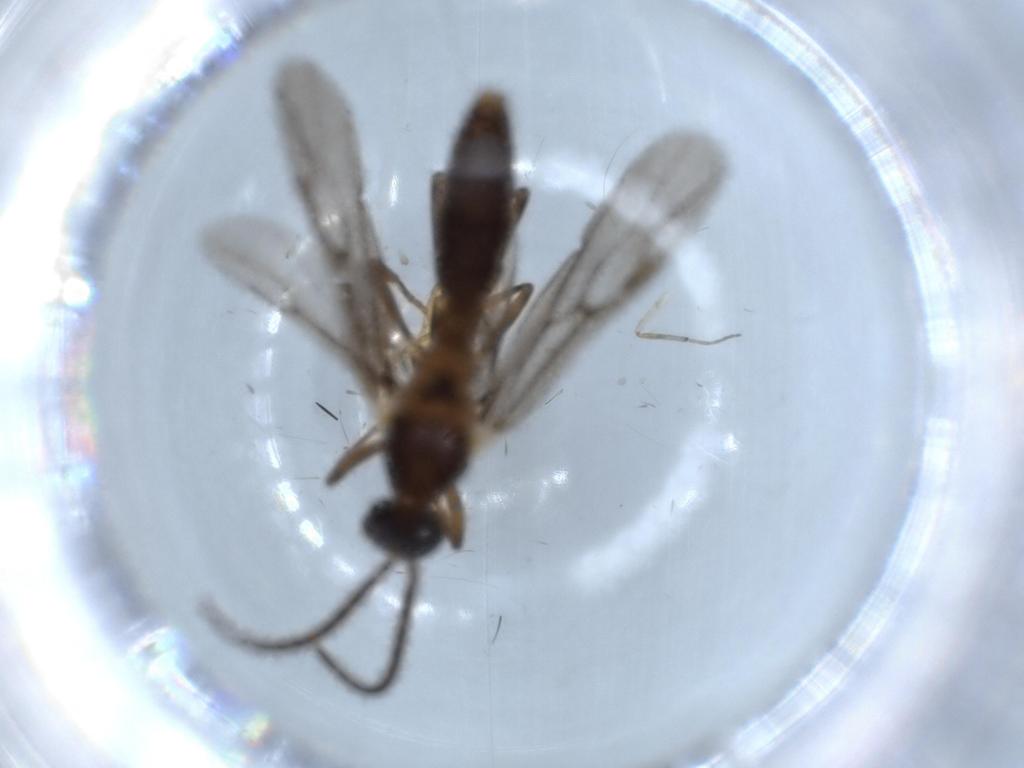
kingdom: Animalia
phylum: Arthropoda
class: Insecta
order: Hymenoptera
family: Formicidae
